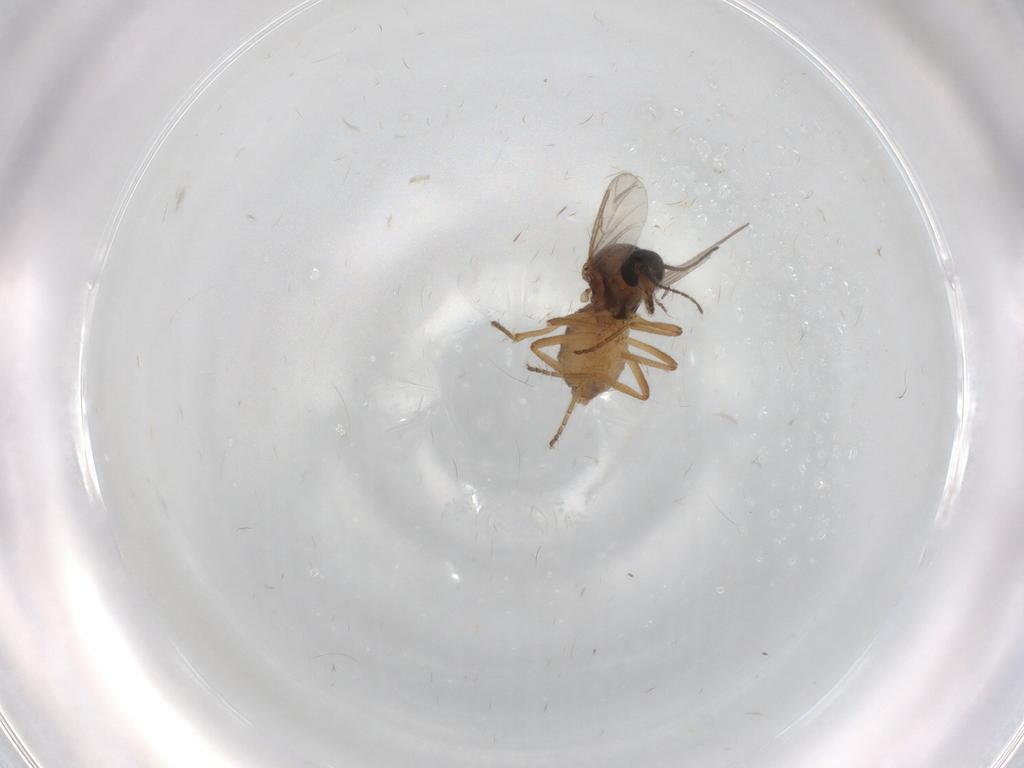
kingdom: Animalia
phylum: Arthropoda
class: Insecta
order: Diptera
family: Ceratopogonidae
